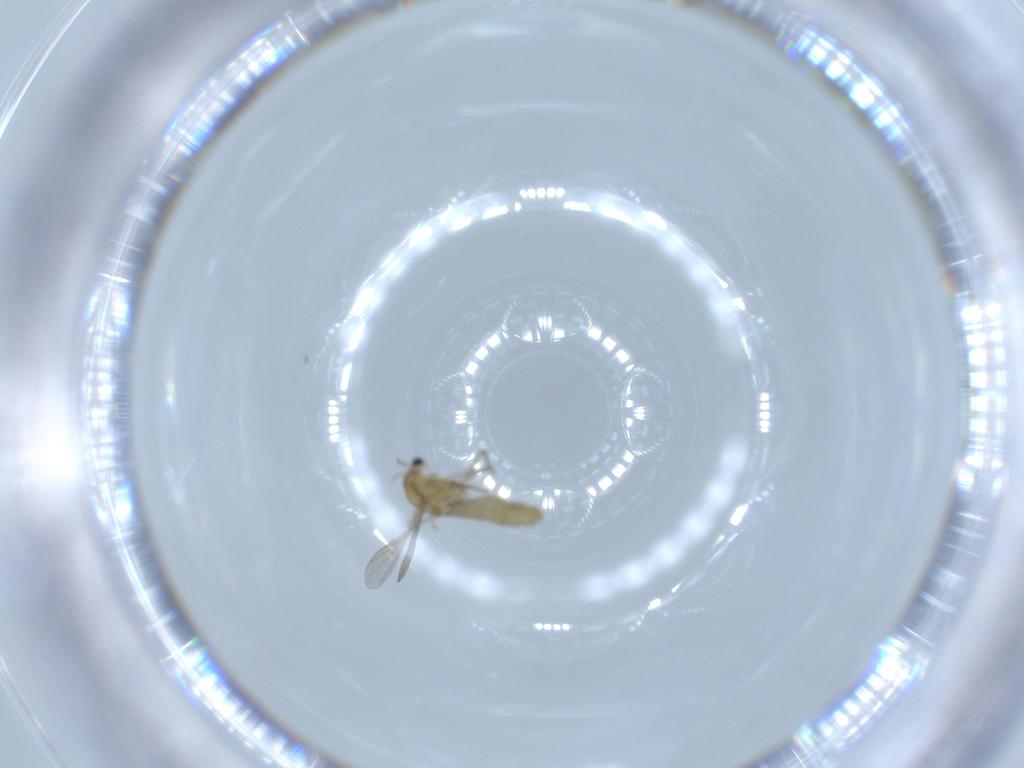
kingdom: Animalia
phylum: Arthropoda
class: Insecta
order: Diptera
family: Chironomidae
